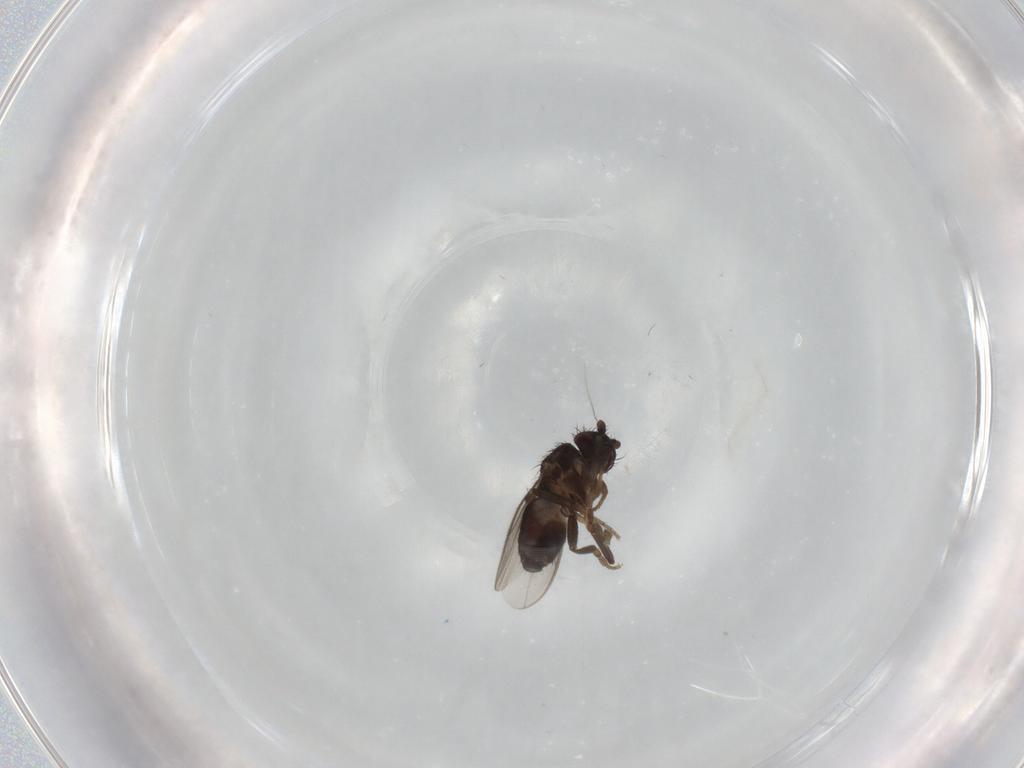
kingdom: Animalia
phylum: Arthropoda
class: Insecta
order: Diptera
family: Sphaeroceridae
